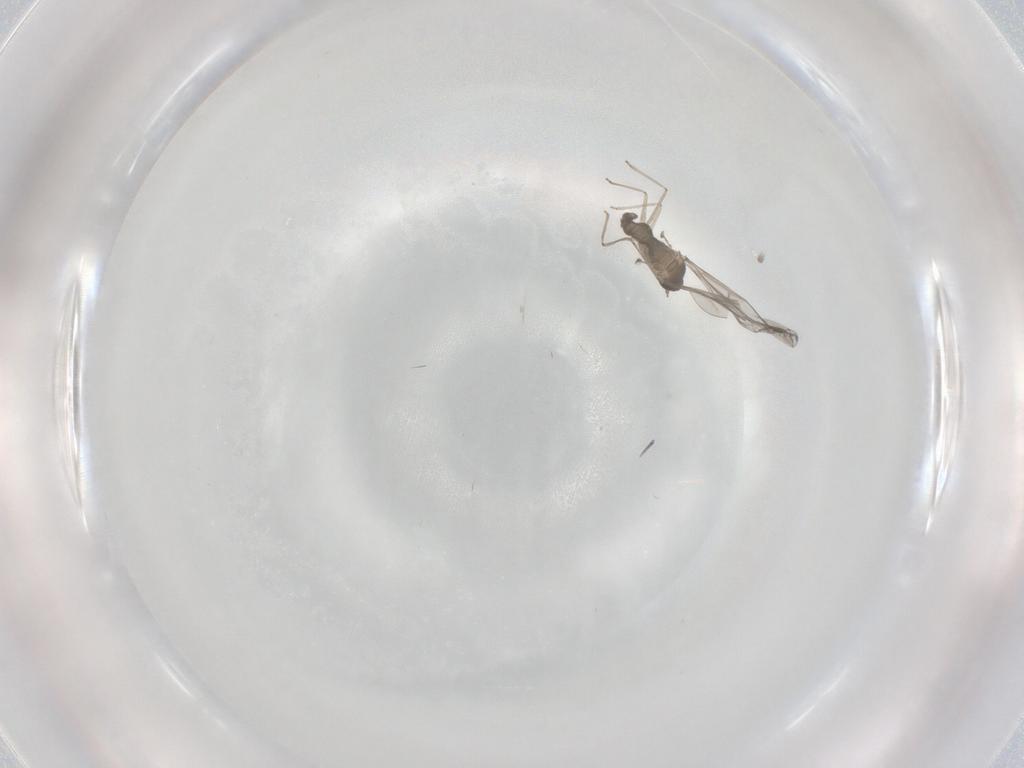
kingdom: Animalia
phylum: Arthropoda
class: Insecta
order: Diptera
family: Cecidomyiidae
